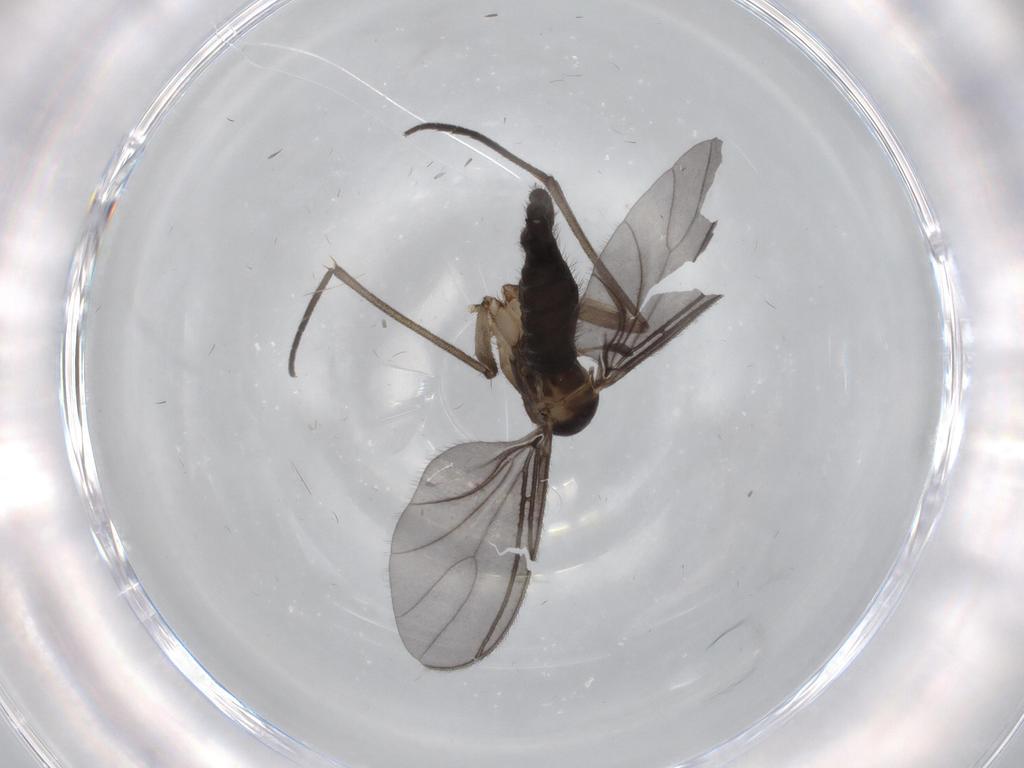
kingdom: Animalia
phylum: Arthropoda
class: Insecta
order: Diptera
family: Sciaridae
